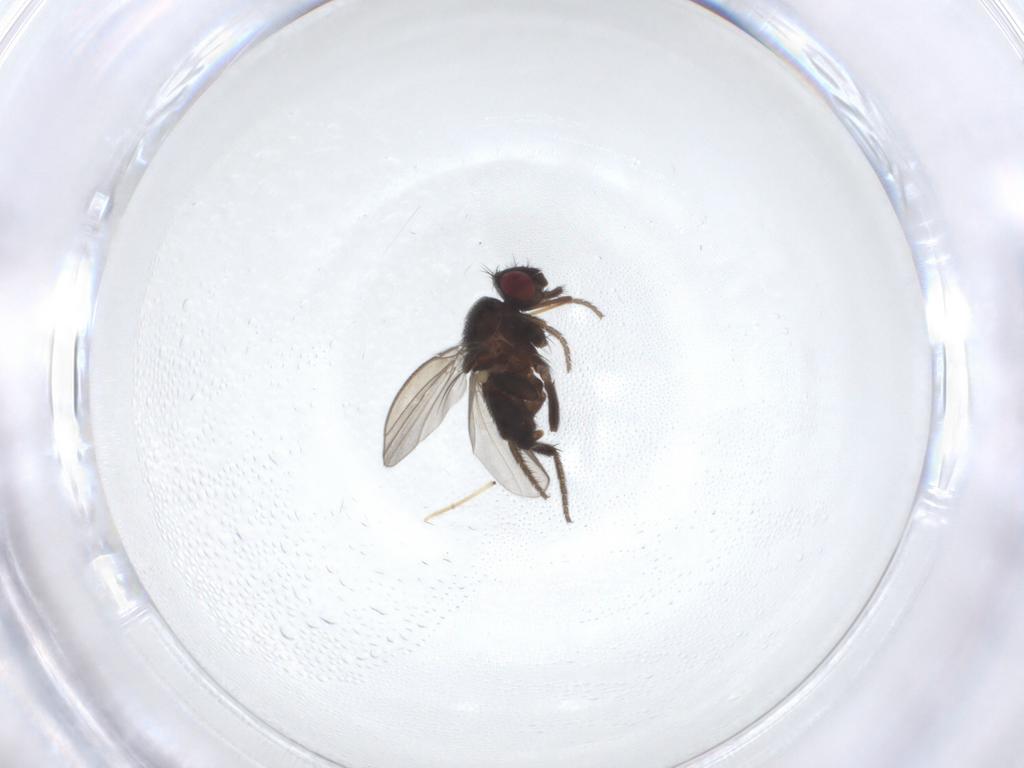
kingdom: Animalia
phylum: Arthropoda
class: Insecta
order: Diptera
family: Milichiidae
